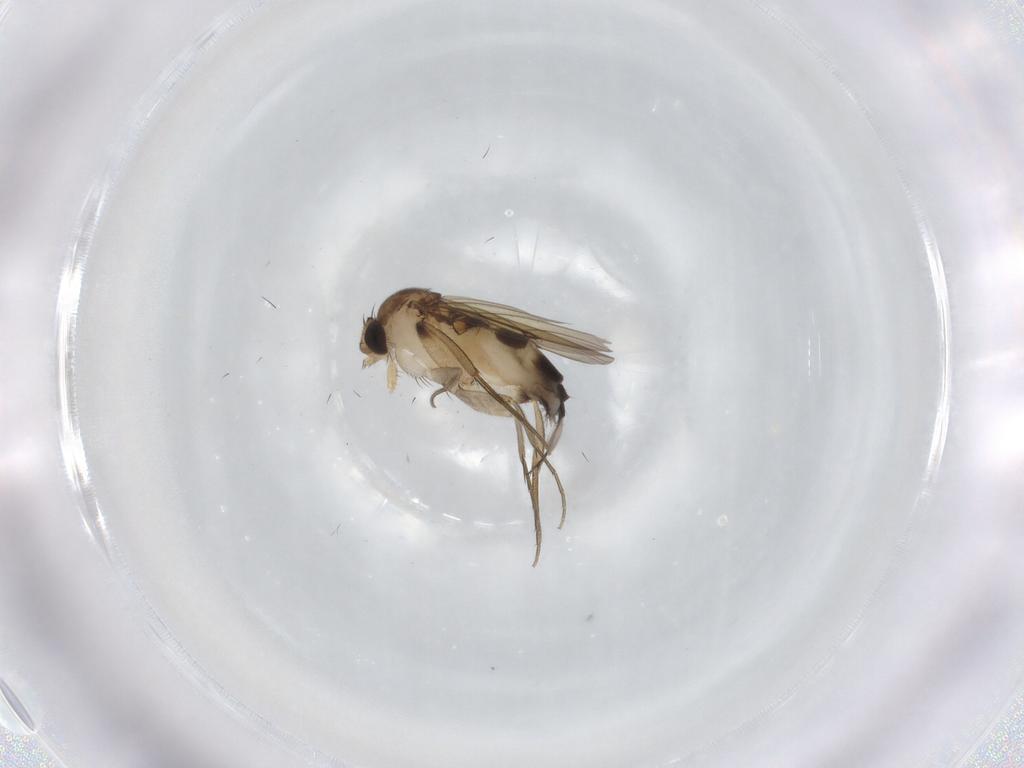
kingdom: Animalia
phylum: Arthropoda
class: Insecta
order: Diptera
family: Phoridae
